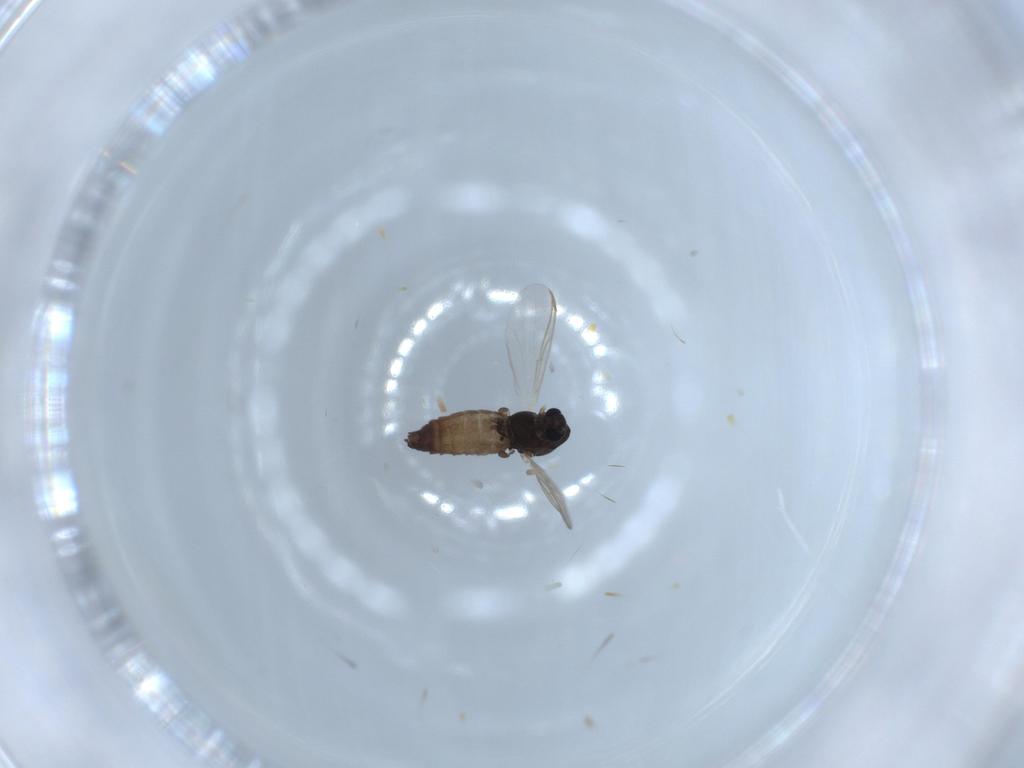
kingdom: Animalia
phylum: Arthropoda
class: Insecta
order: Diptera
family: Chironomidae
